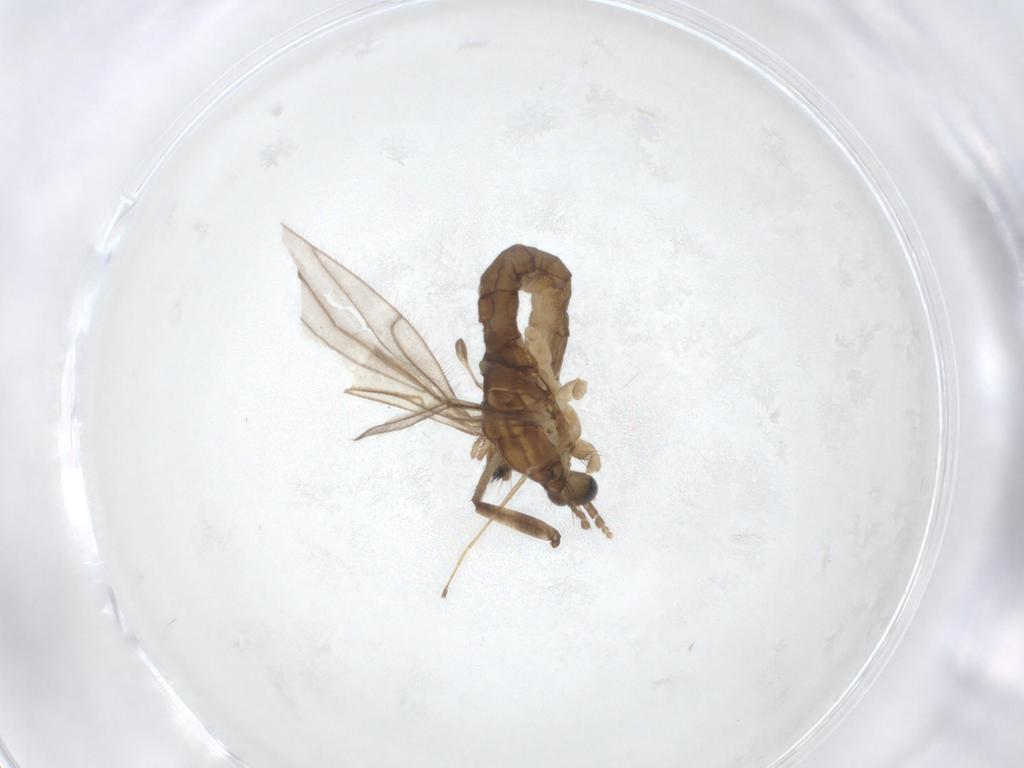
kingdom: Animalia
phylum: Arthropoda
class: Insecta
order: Diptera
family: Limoniidae
